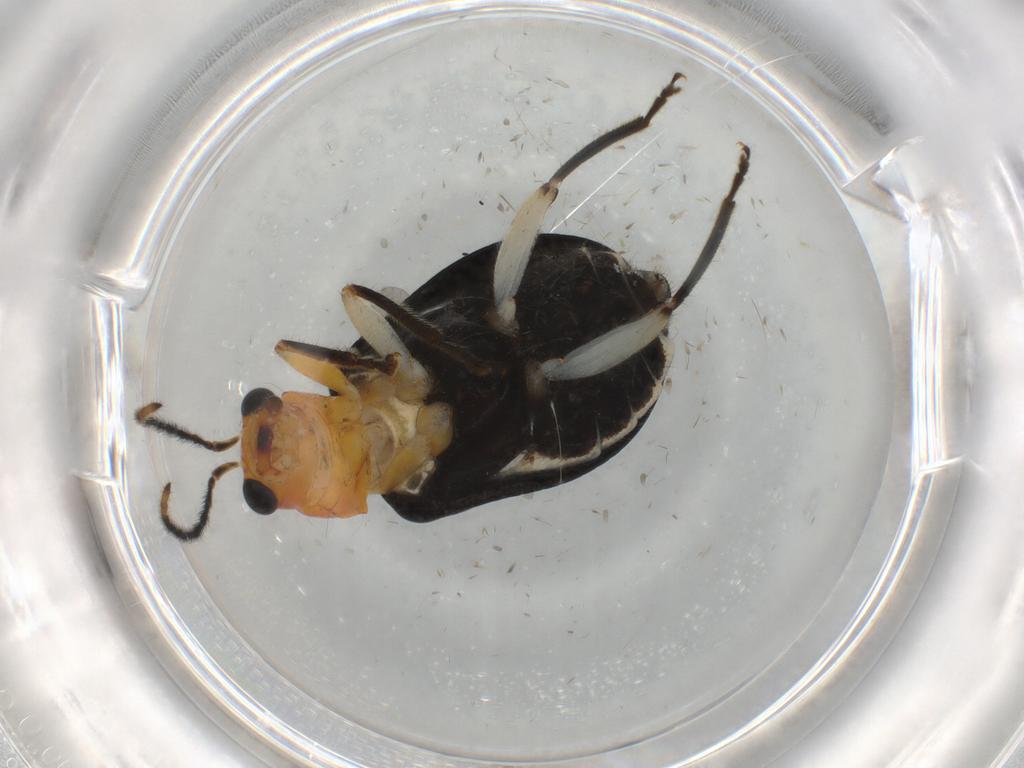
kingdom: Animalia
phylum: Arthropoda
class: Insecta
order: Coleoptera
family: Chrysomelidae
